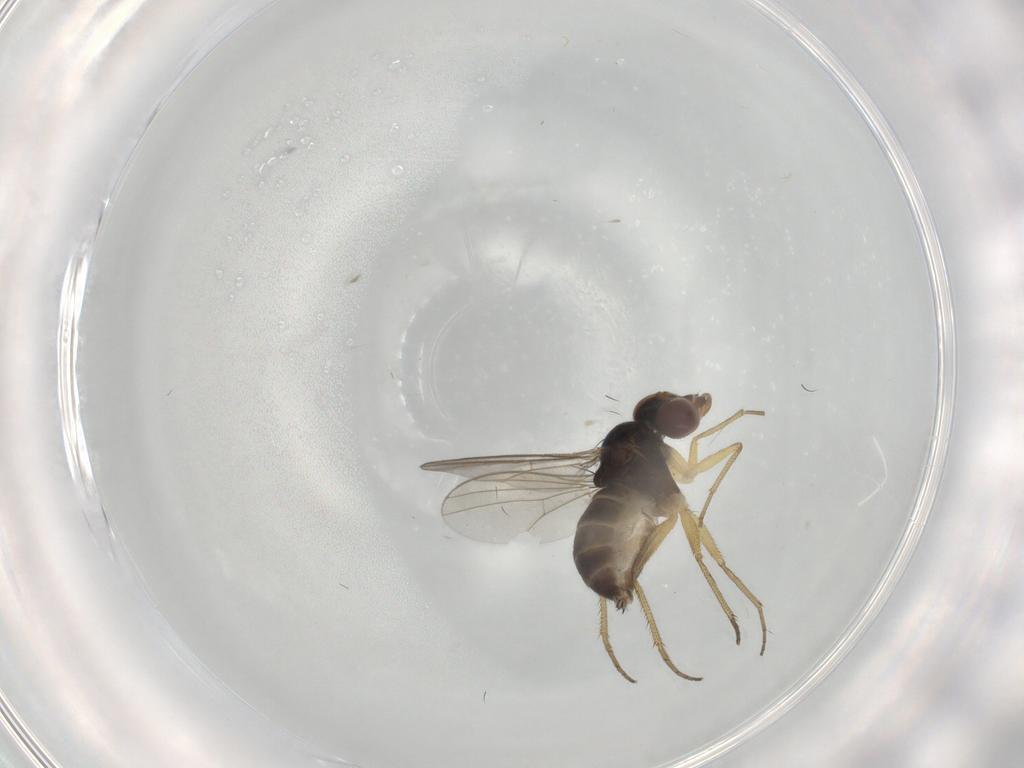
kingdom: Animalia
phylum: Arthropoda
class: Insecta
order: Diptera
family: Dolichopodidae
